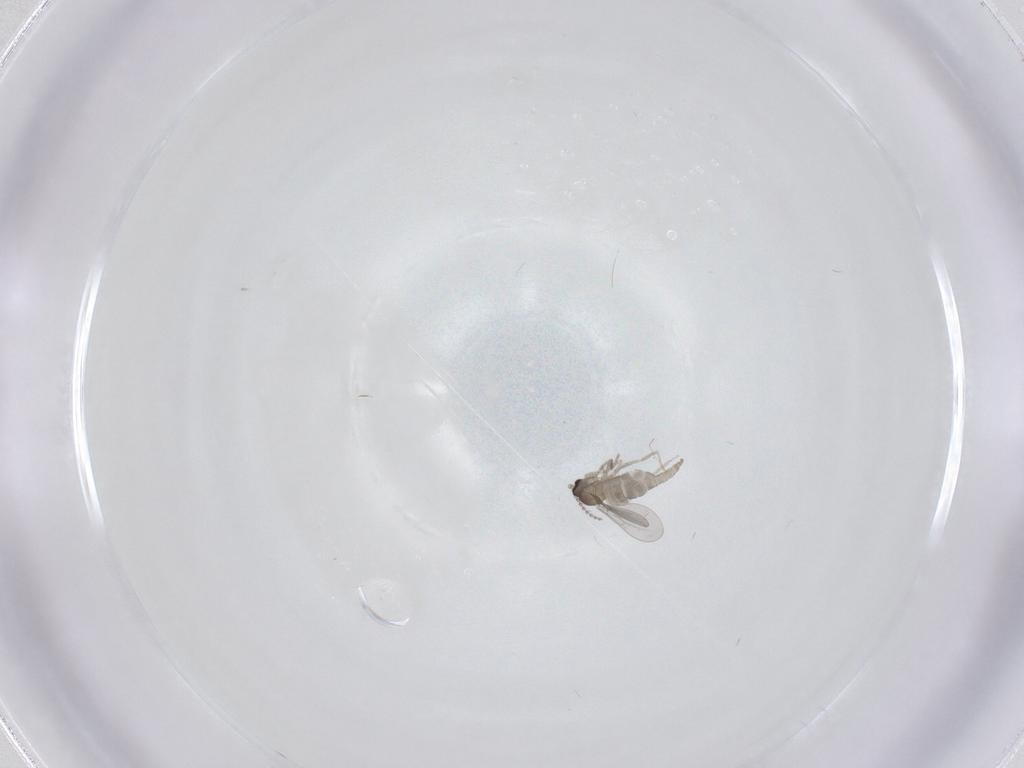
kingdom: Animalia
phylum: Arthropoda
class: Insecta
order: Diptera
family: Cecidomyiidae
